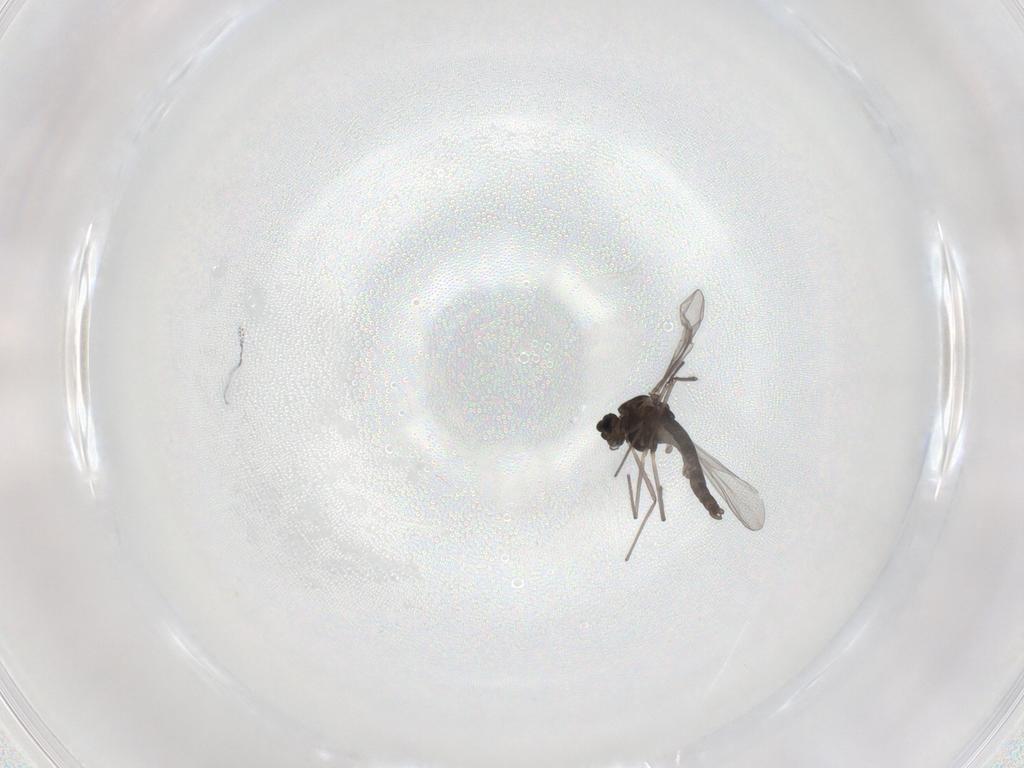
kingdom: Animalia
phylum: Arthropoda
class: Insecta
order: Diptera
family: Chironomidae
